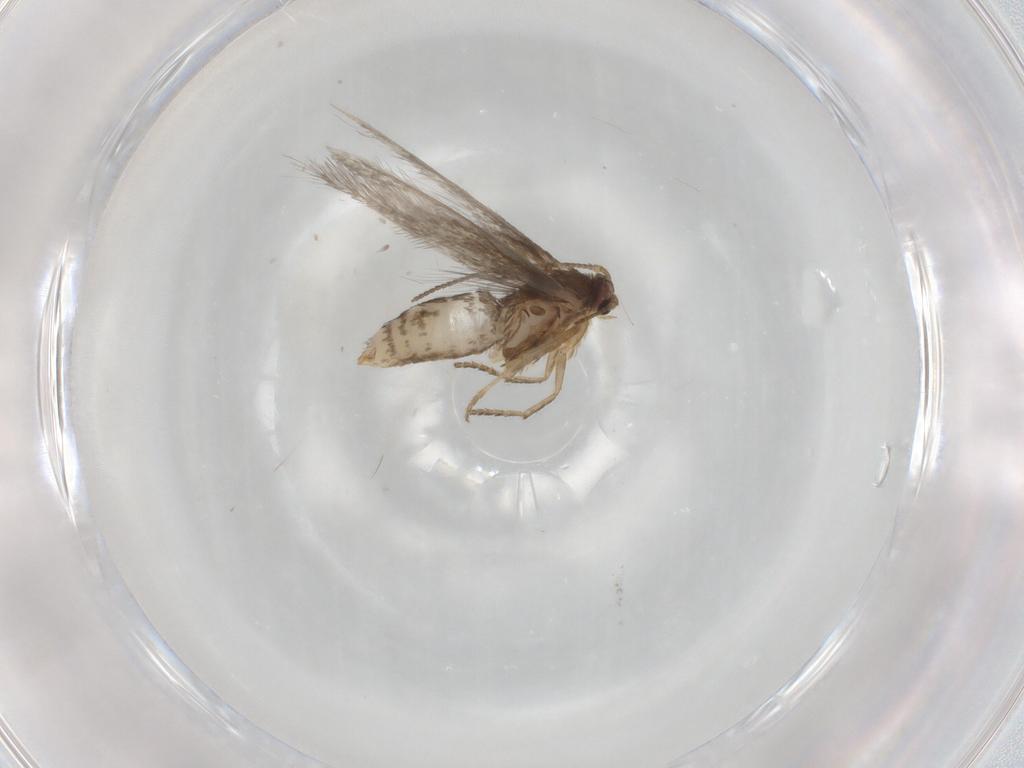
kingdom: Animalia
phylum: Arthropoda
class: Insecta
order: Lepidoptera
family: Nepticulidae
